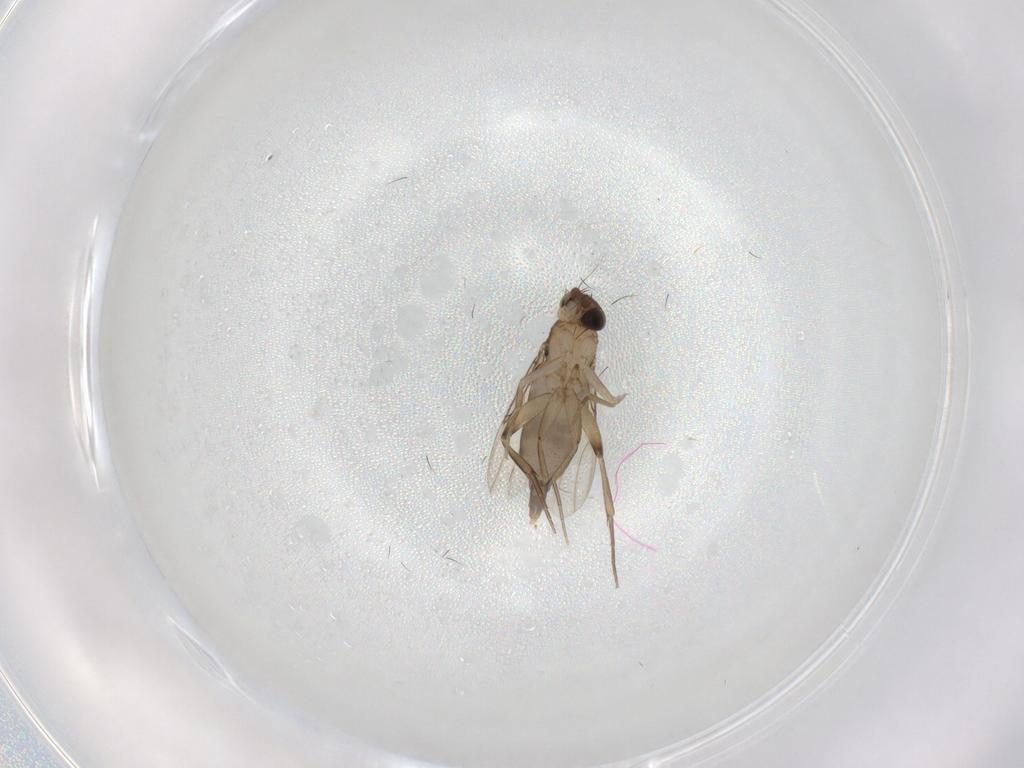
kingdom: Animalia
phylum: Arthropoda
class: Insecta
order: Diptera
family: Phoridae
